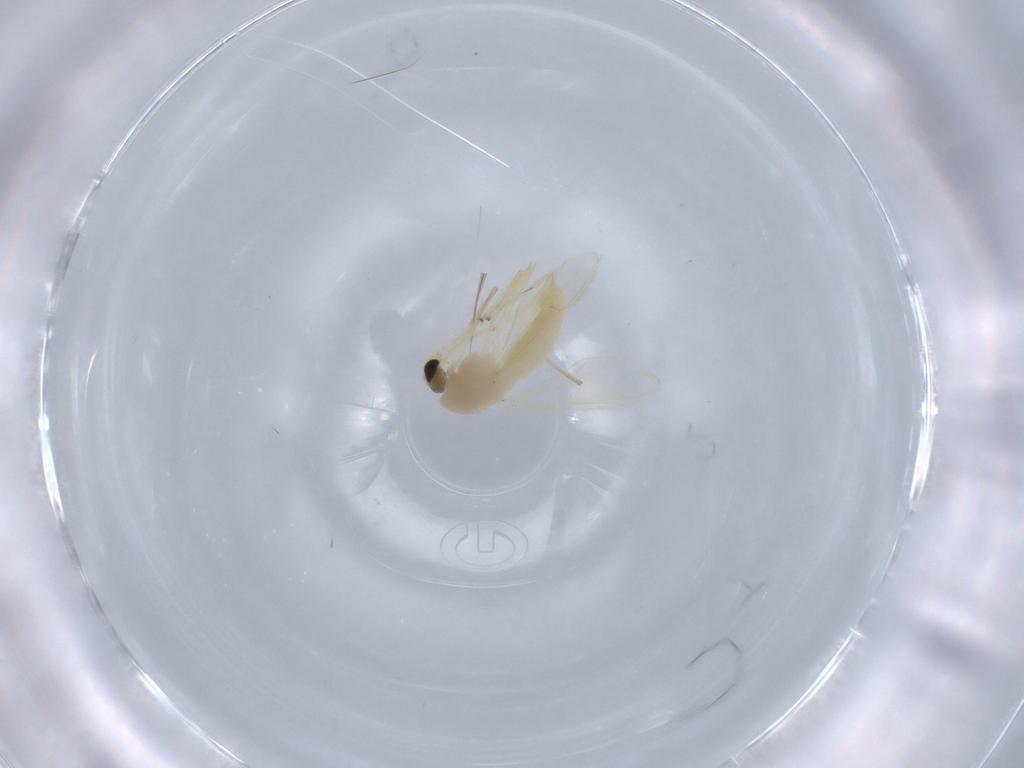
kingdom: Animalia
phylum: Arthropoda
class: Insecta
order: Diptera
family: Chironomidae
